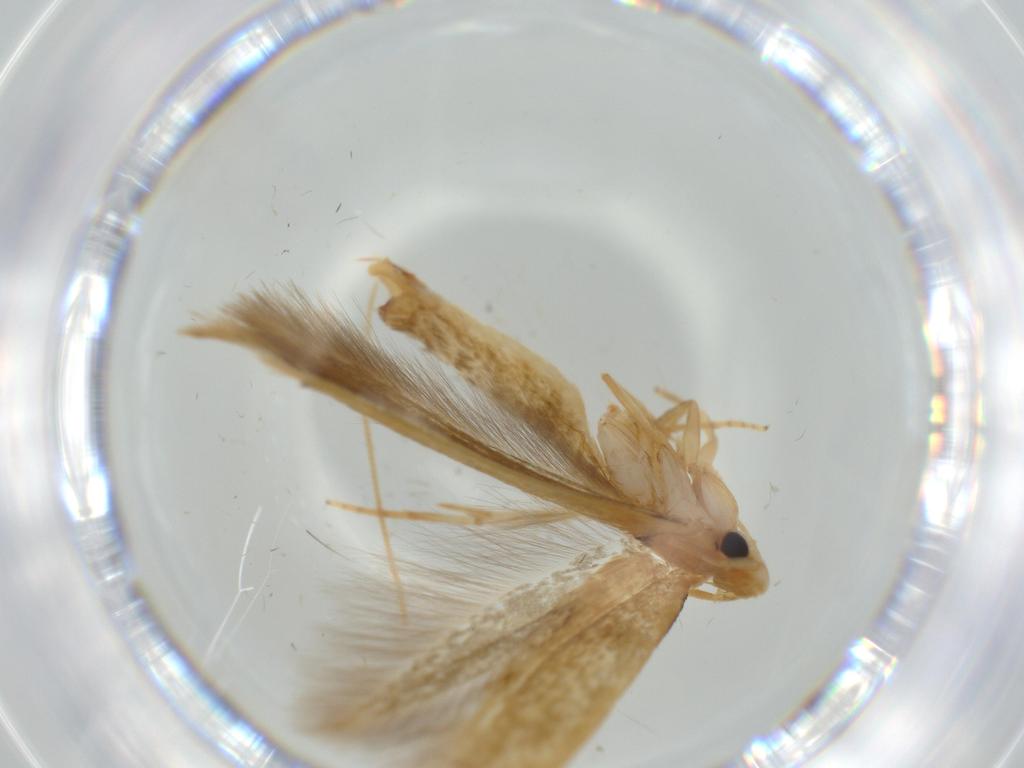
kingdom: Animalia
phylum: Arthropoda
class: Insecta
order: Lepidoptera
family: Tineidae
